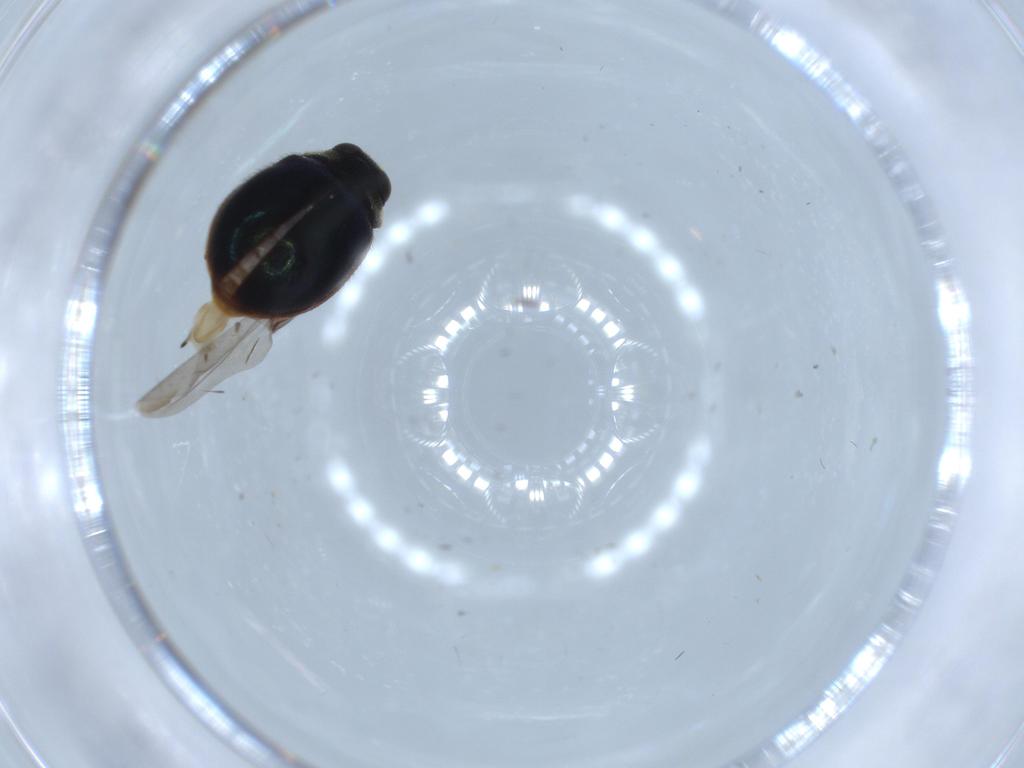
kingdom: Animalia
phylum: Arthropoda
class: Insecta
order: Coleoptera
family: Coccinellidae
